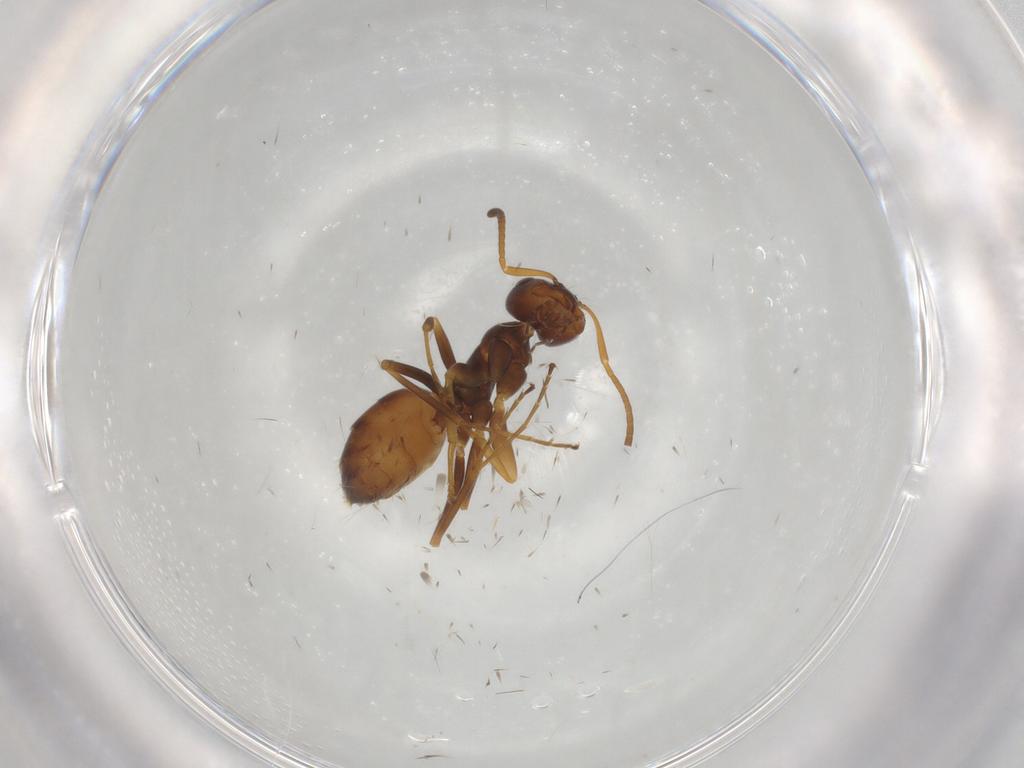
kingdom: Animalia
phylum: Arthropoda
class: Insecta
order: Hymenoptera
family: Formicidae
